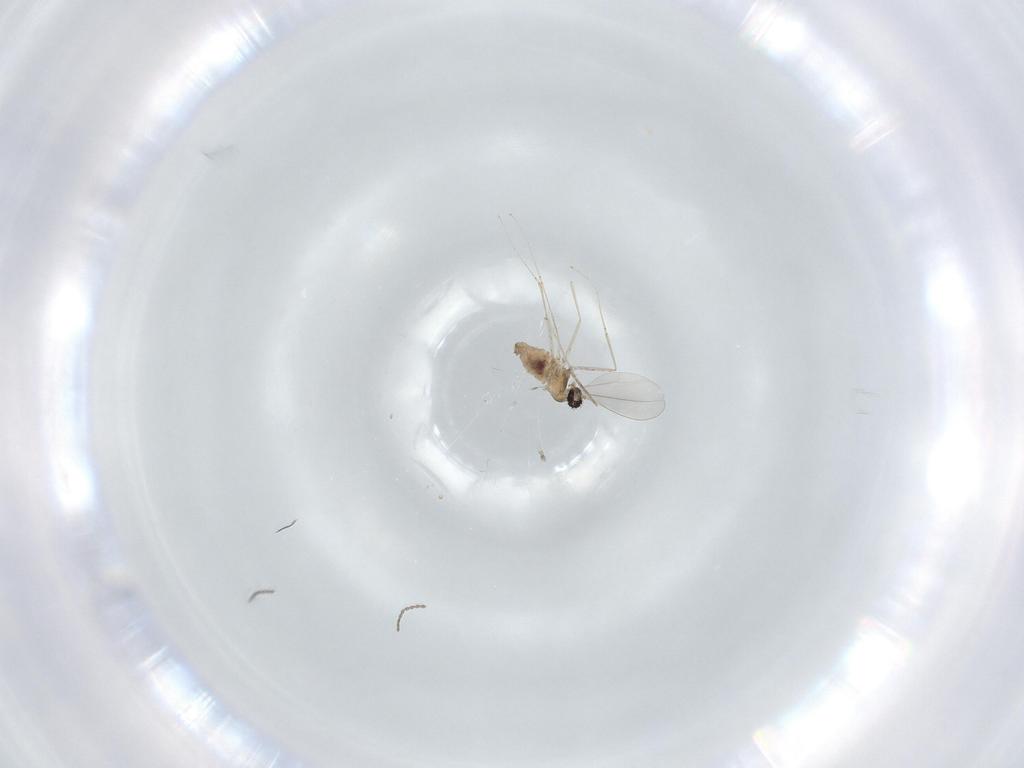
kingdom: Animalia
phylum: Arthropoda
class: Insecta
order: Diptera
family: Cecidomyiidae
